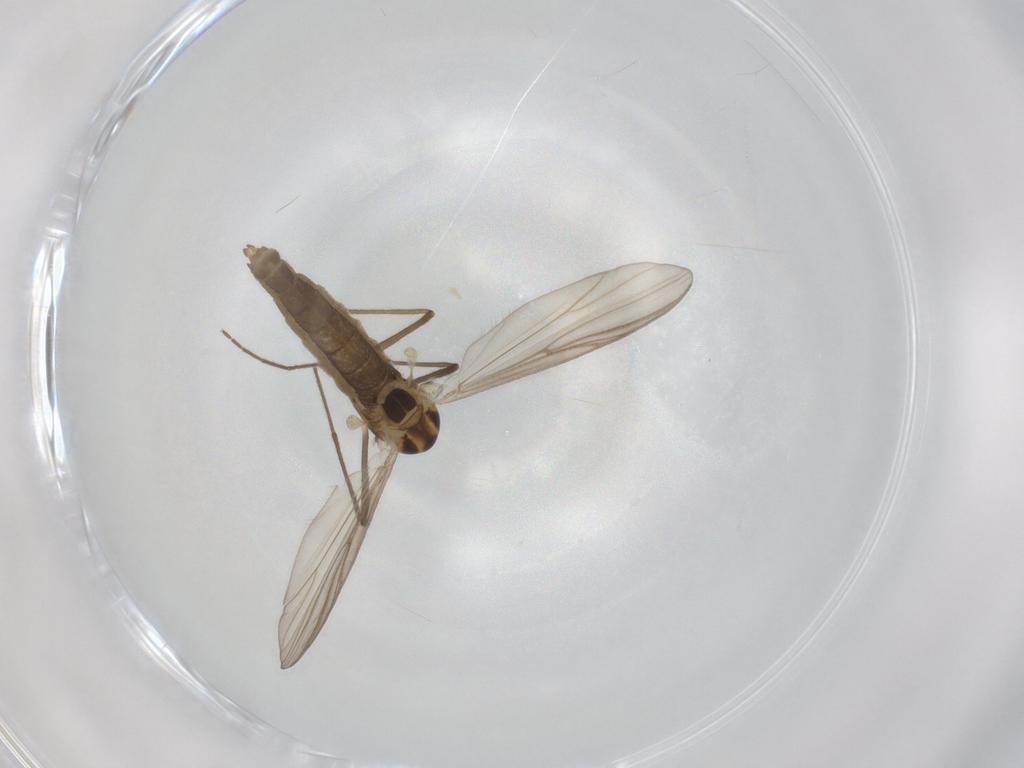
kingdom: Animalia
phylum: Arthropoda
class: Insecta
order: Diptera
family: Chironomidae
